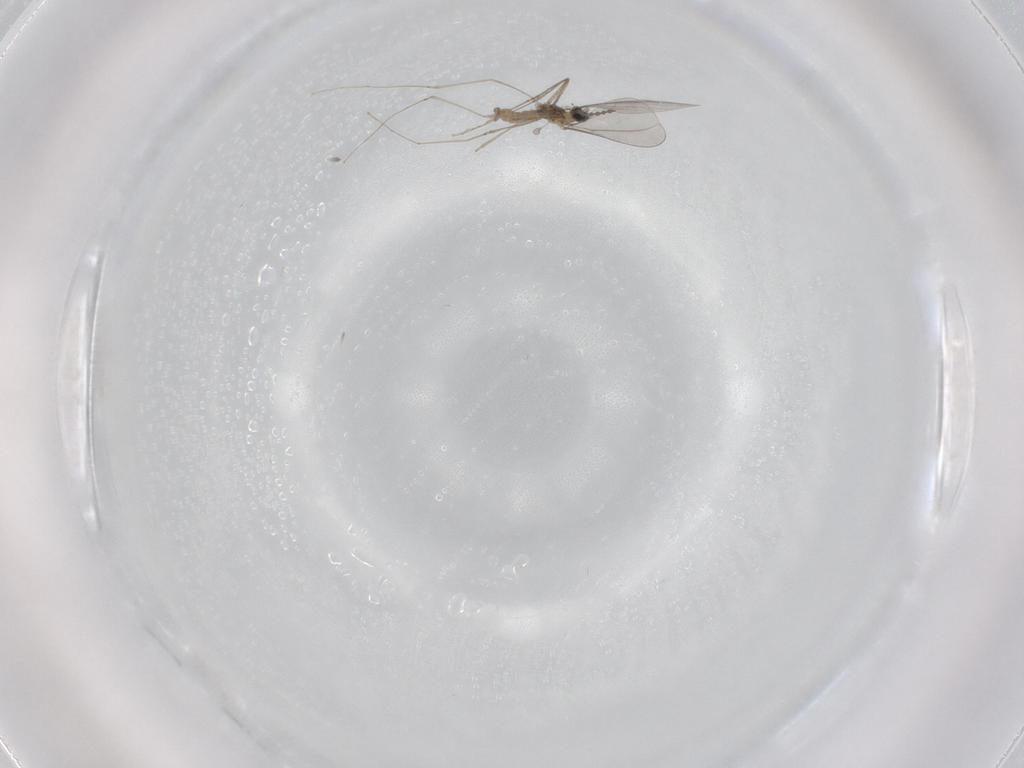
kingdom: Animalia
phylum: Arthropoda
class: Insecta
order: Diptera
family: Cecidomyiidae
